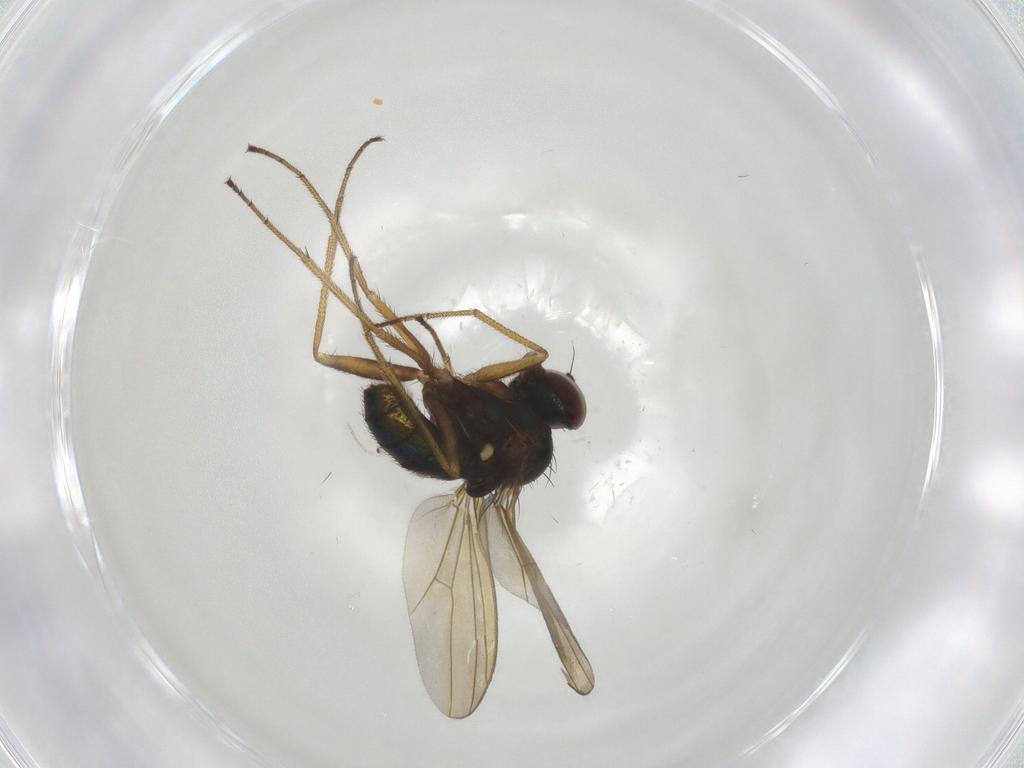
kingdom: Animalia
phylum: Arthropoda
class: Insecta
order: Diptera
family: Dolichopodidae
